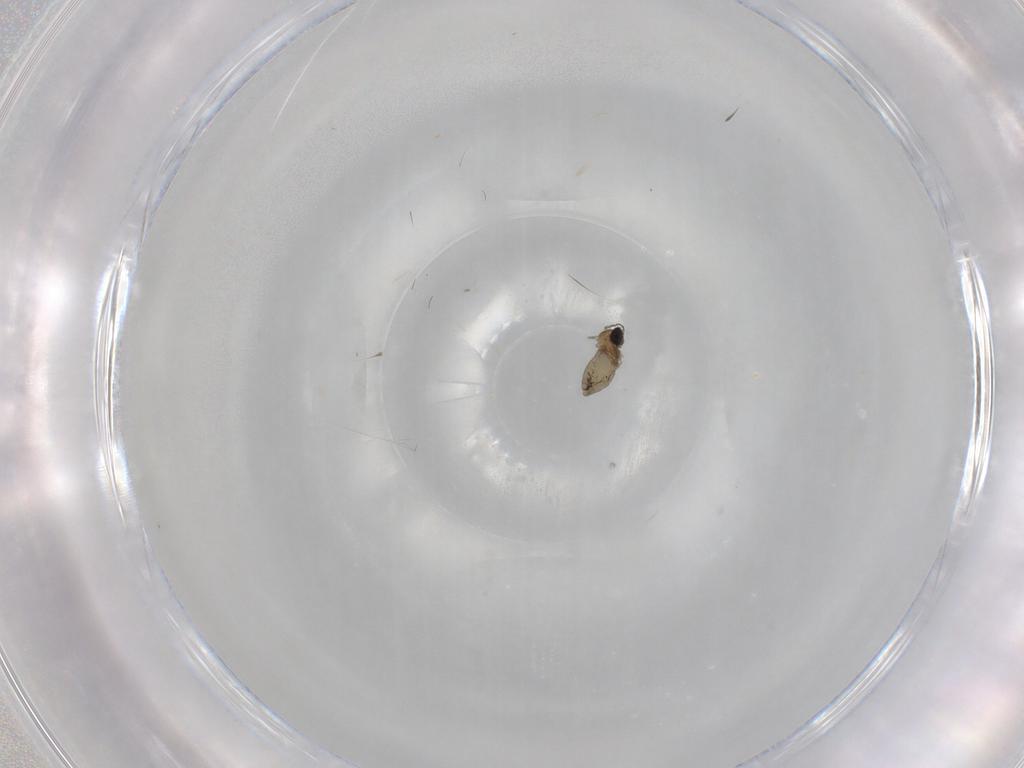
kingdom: Animalia
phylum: Arthropoda
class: Insecta
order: Diptera
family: Cecidomyiidae
